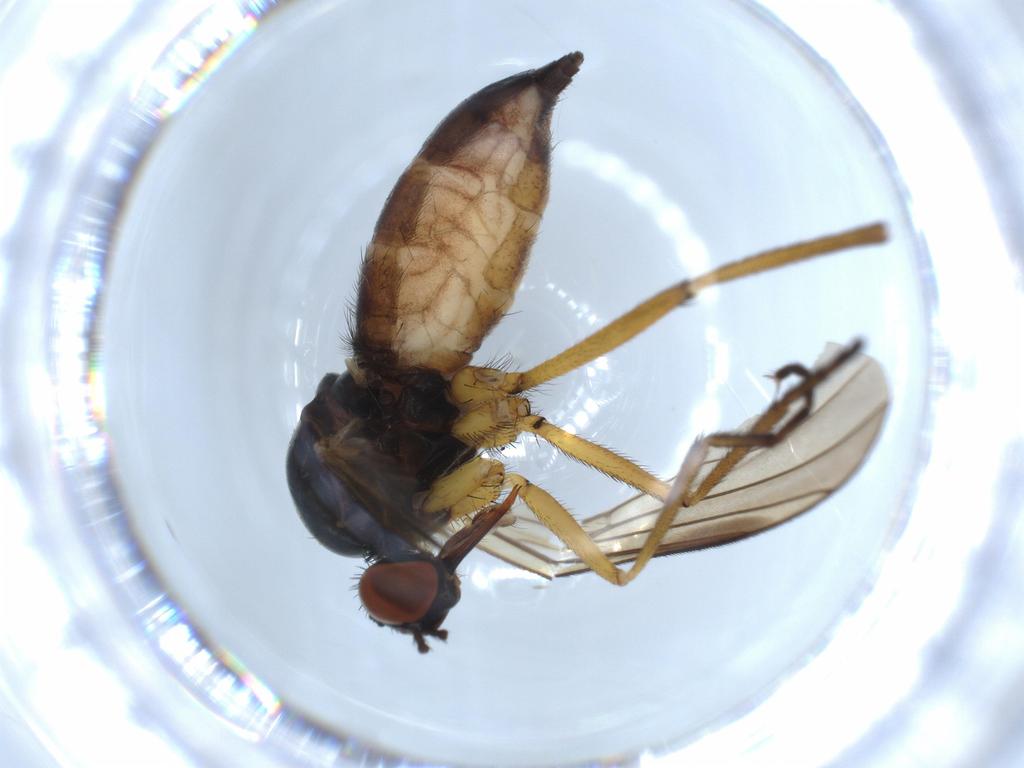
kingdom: Animalia
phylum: Arthropoda
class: Insecta
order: Diptera
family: Empididae
